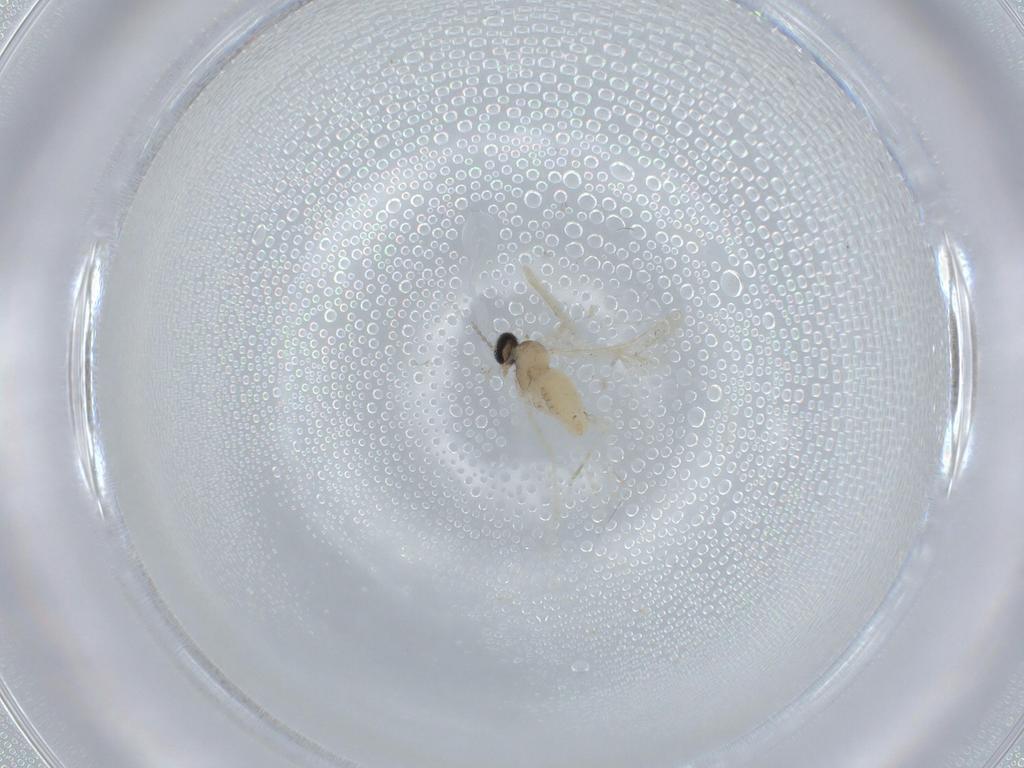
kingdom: Animalia
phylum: Arthropoda
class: Insecta
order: Diptera
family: Cecidomyiidae
